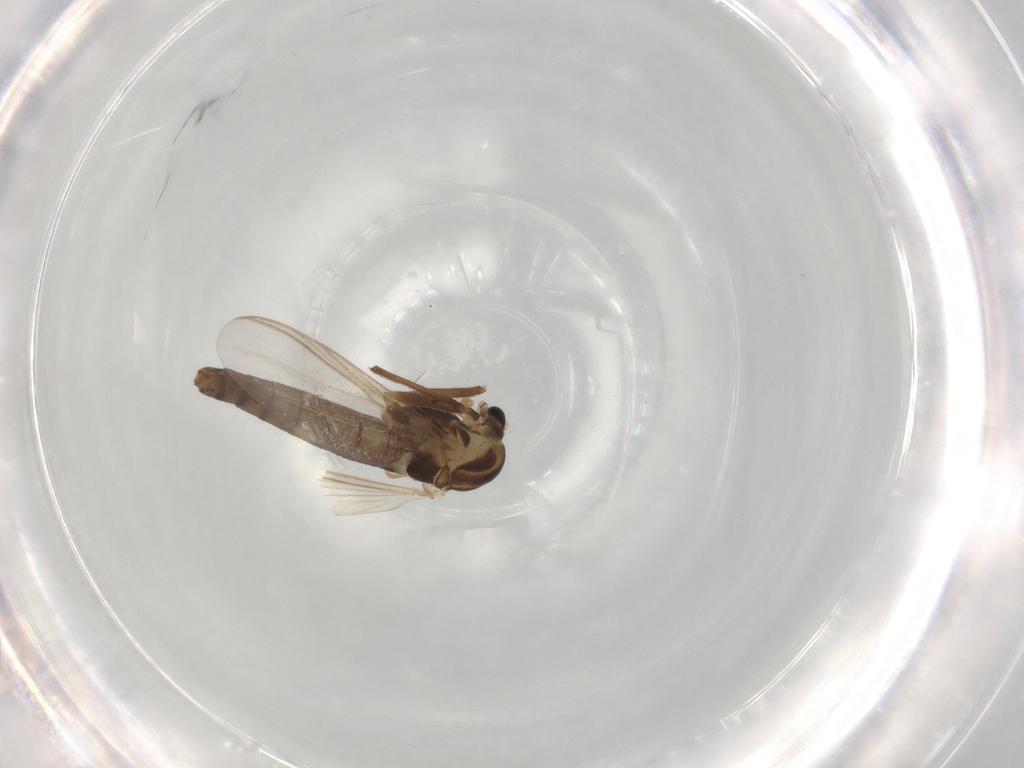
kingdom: Animalia
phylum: Arthropoda
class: Insecta
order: Diptera
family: Chironomidae
